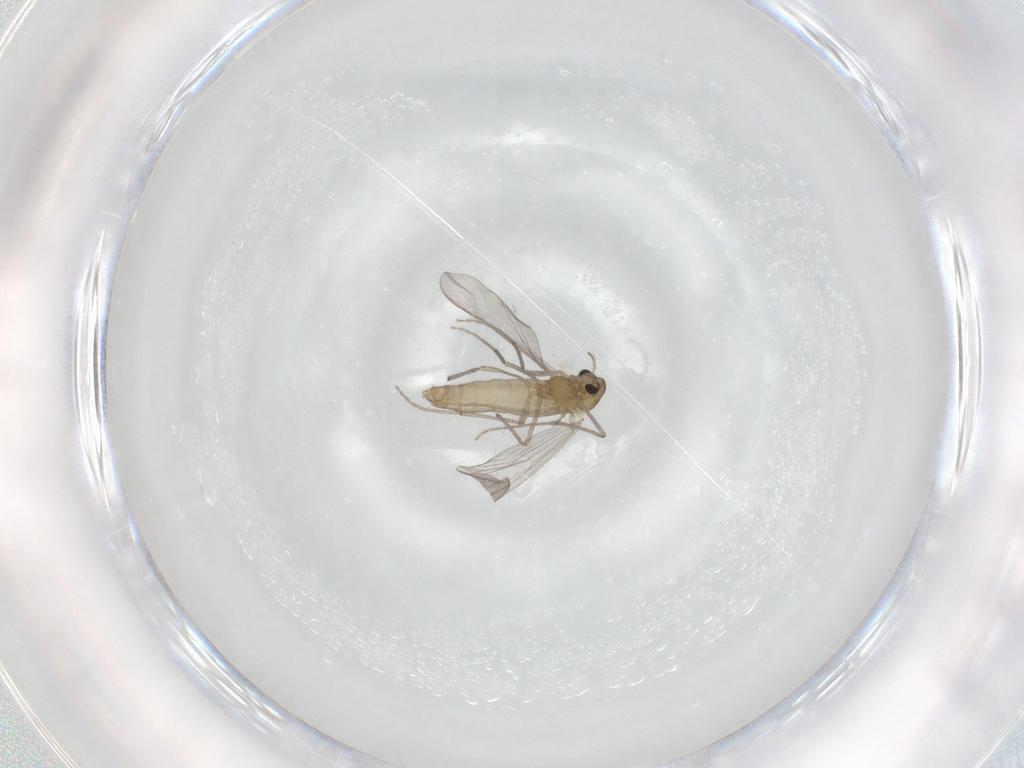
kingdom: Animalia
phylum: Arthropoda
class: Insecta
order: Diptera
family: Chironomidae
